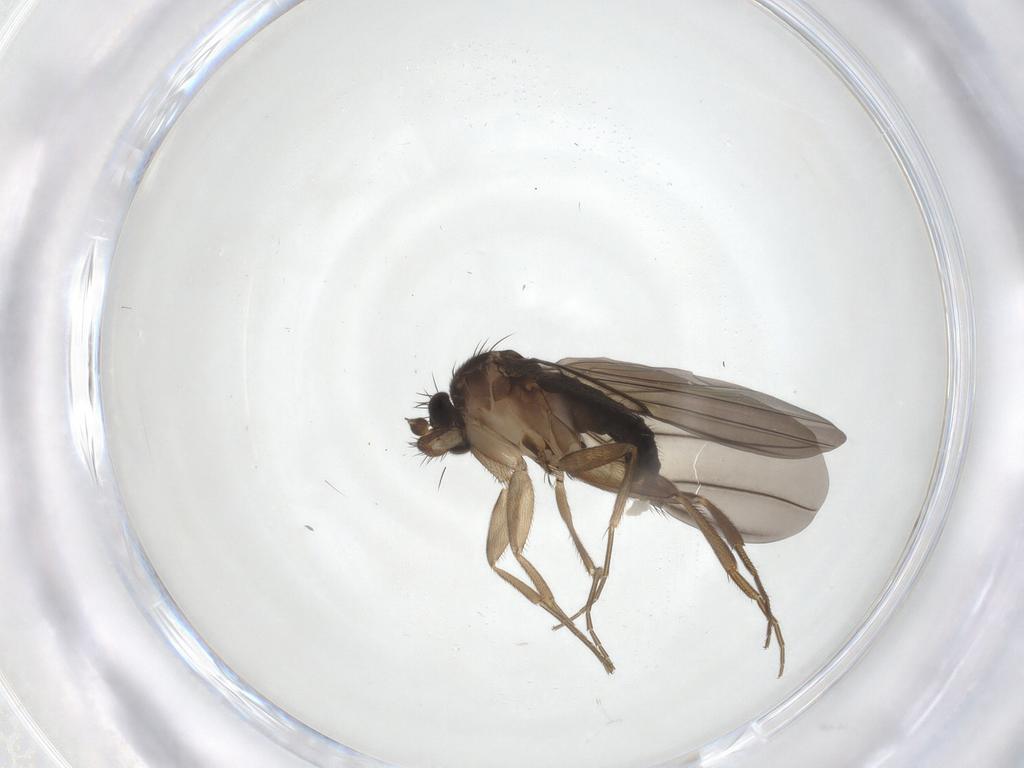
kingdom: Animalia
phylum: Arthropoda
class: Insecta
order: Diptera
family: Phoridae
